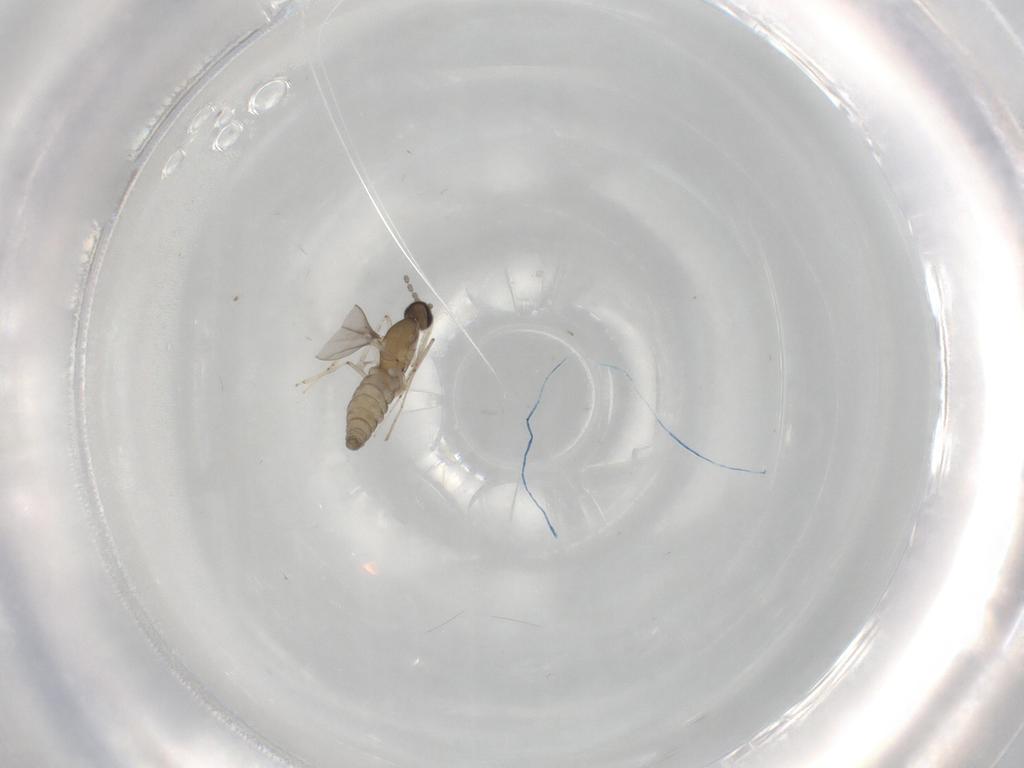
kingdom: Animalia
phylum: Arthropoda
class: Insecta
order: Diptera
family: Cecidomyiidae
